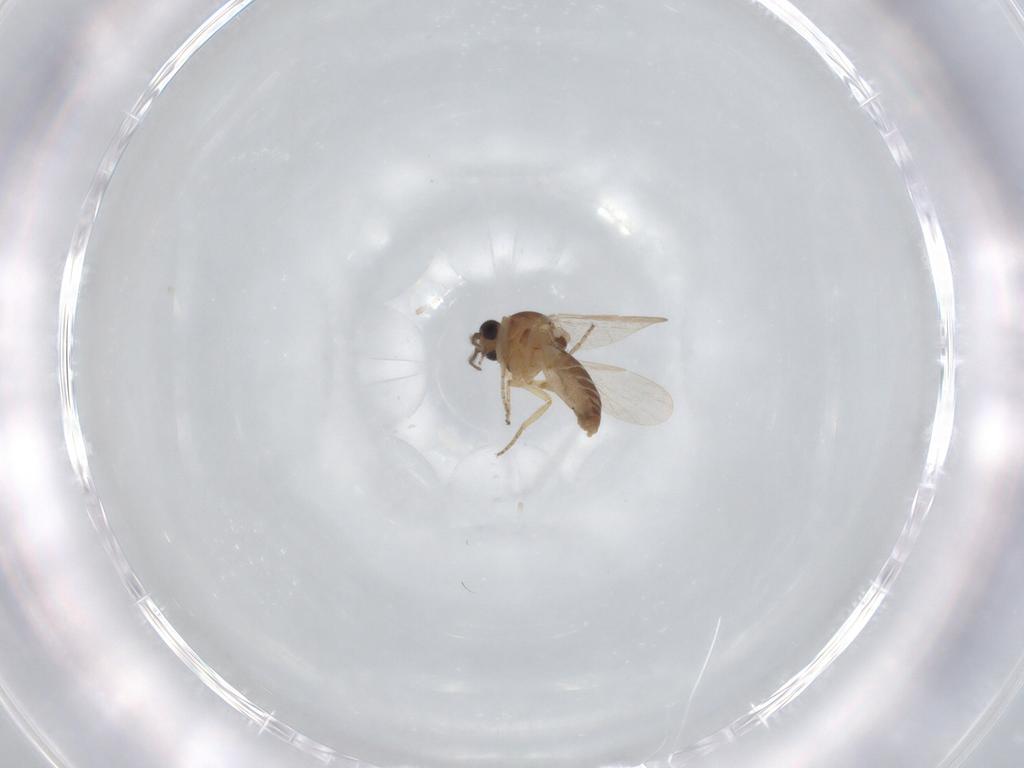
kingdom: Animalia
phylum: Arthropoda
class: Insecta
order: Diptera
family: Ceratopogonidae
